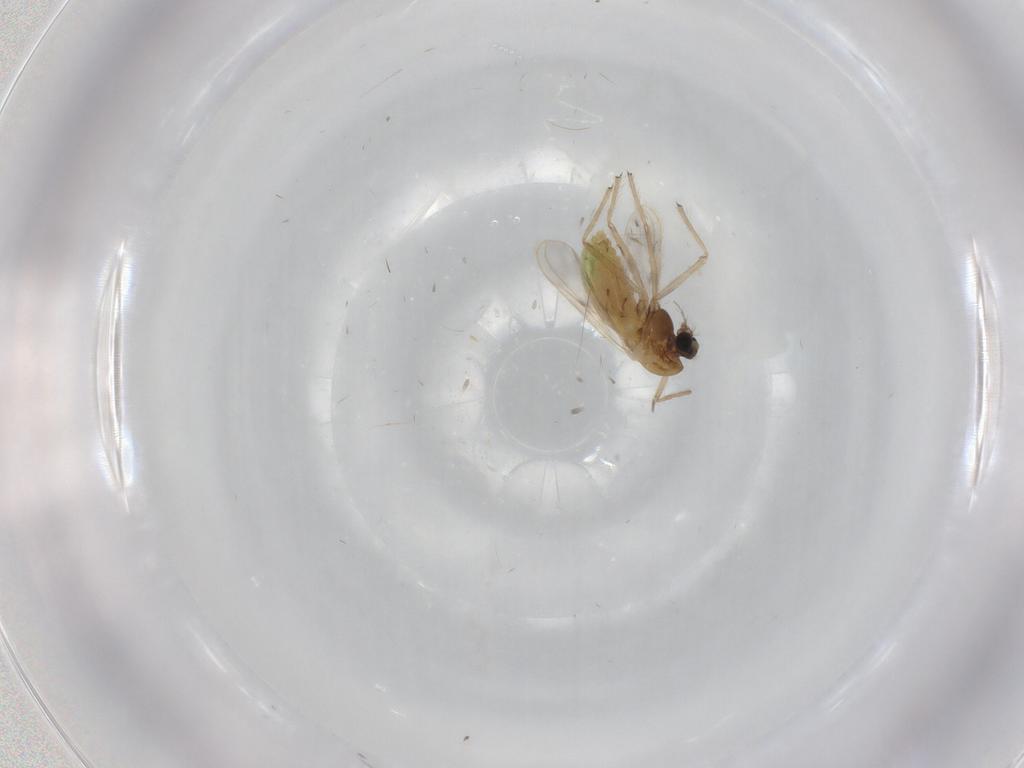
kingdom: Animalia
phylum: Arthropoda
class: Insecta
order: Diptera
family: Chironomidae
